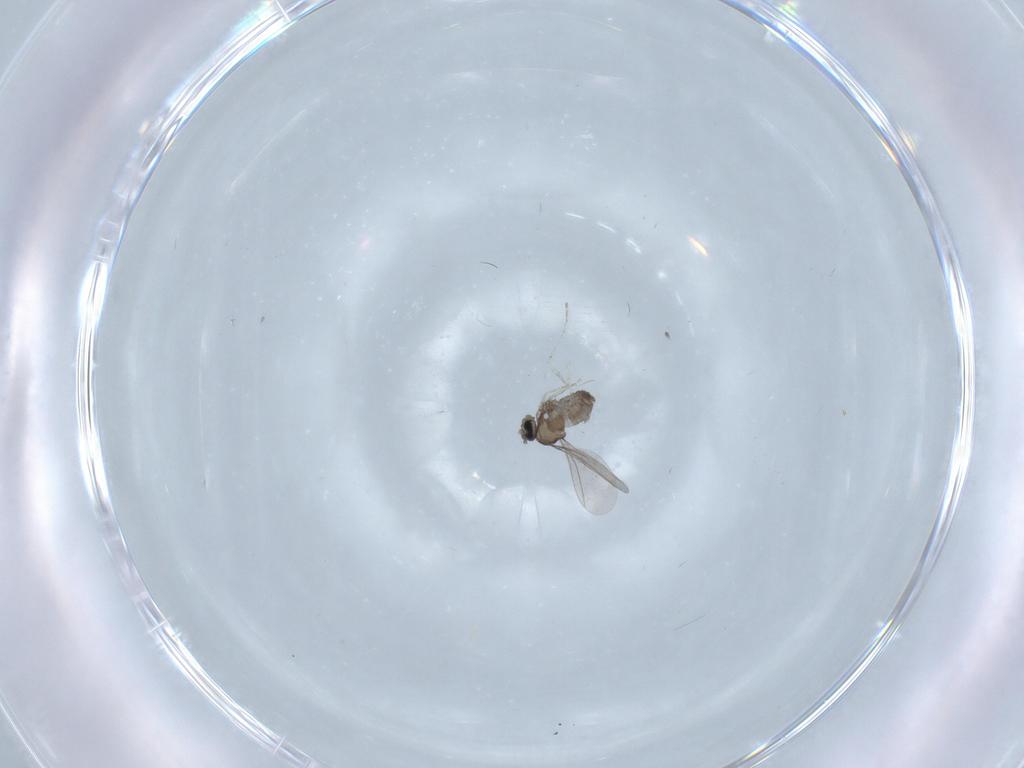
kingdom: Animalia
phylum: Arthropoda
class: Insecta
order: Diptera
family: Cecidomyiidae
